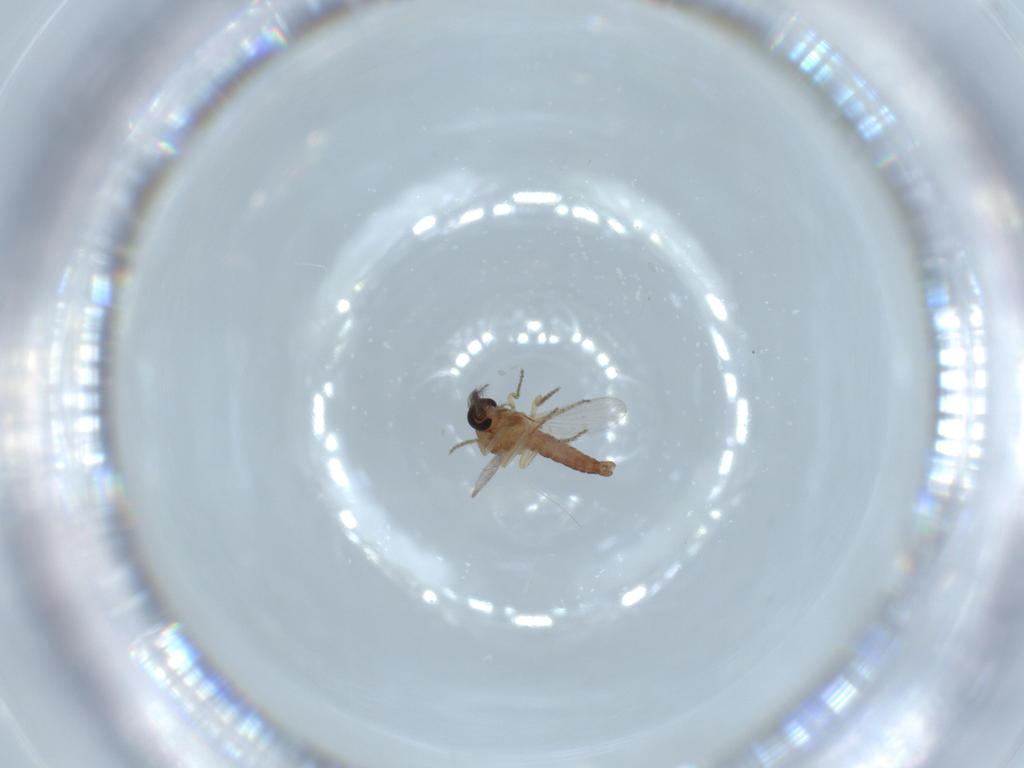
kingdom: Animalia
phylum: Arthropoda
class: Insecta
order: Diptera
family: Ceratopogonidae
